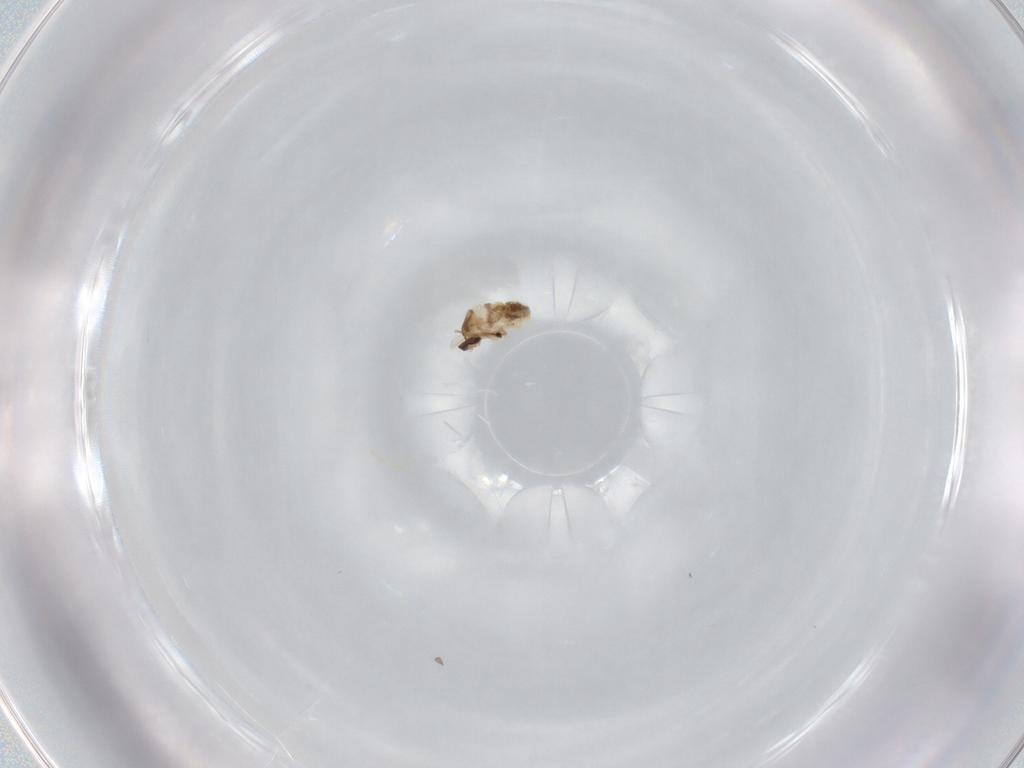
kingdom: Animalia
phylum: Arthropoda
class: Insecta
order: Diptera
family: Cecidomyiidae
